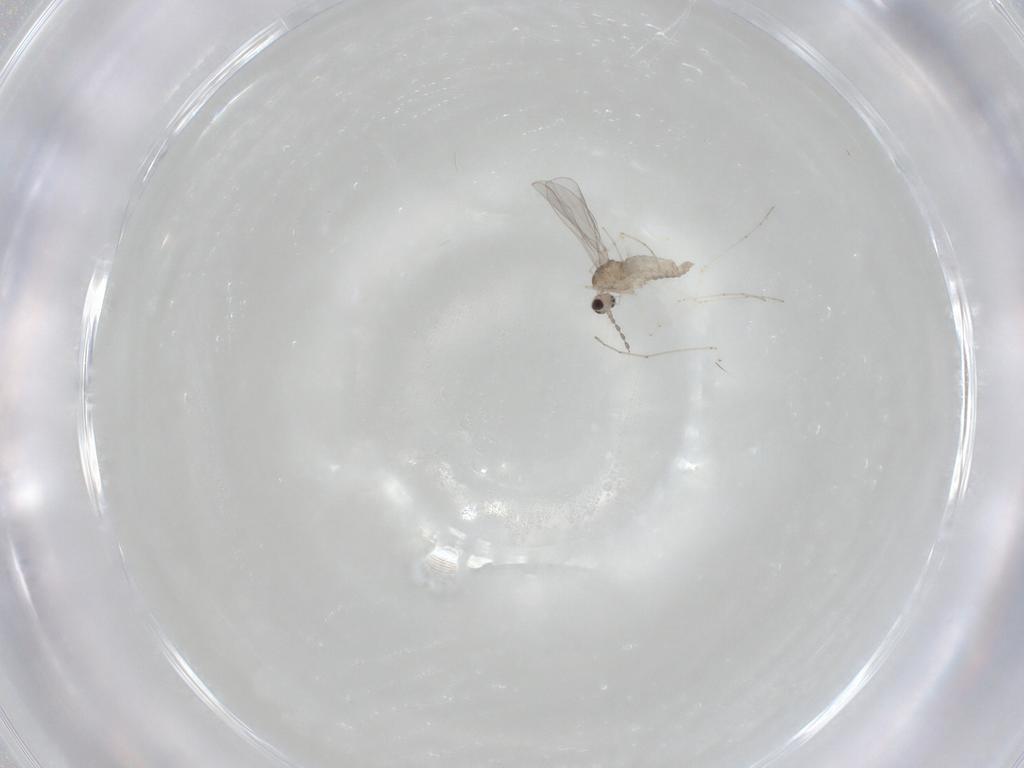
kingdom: Animalia
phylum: Arthropoda
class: Insecta
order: Diptera
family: Cecidomyiidae
